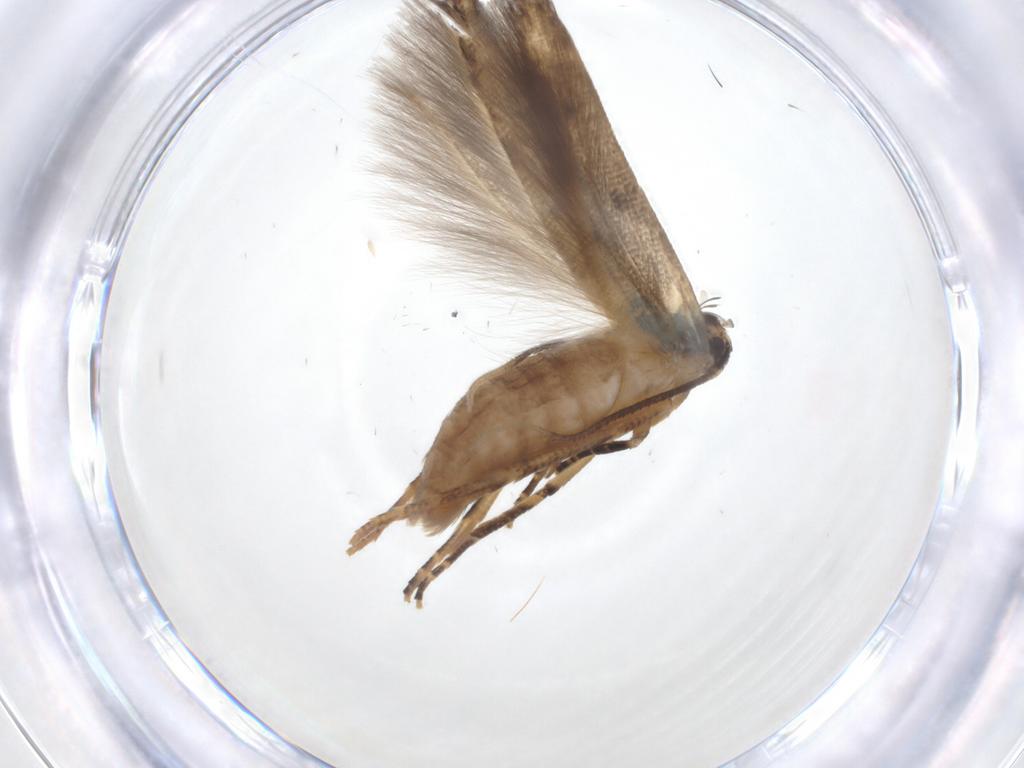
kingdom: Animalia
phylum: Arthropoda
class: Insecta
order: Lepidoptera
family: Cosmopterigidae
